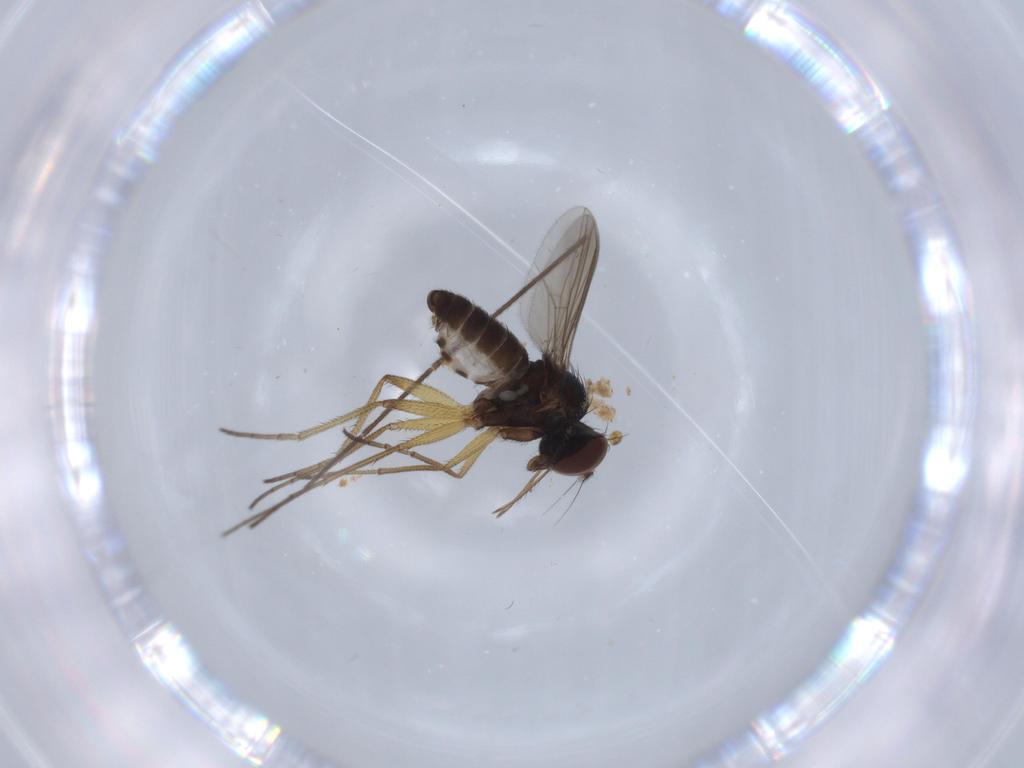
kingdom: Animalia
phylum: Arthropoda
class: Insecta
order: Diptera
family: Dolichopodidae
